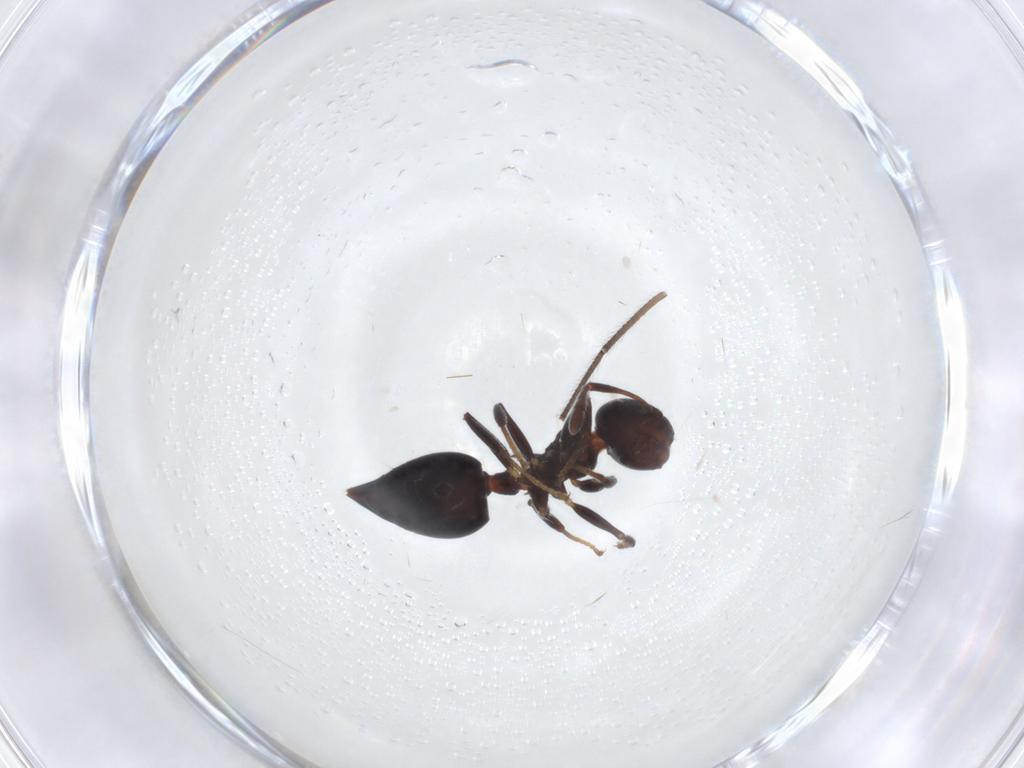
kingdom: Animalia
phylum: Arthropoda
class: Insecta
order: Hymenoptera
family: Formicidae
